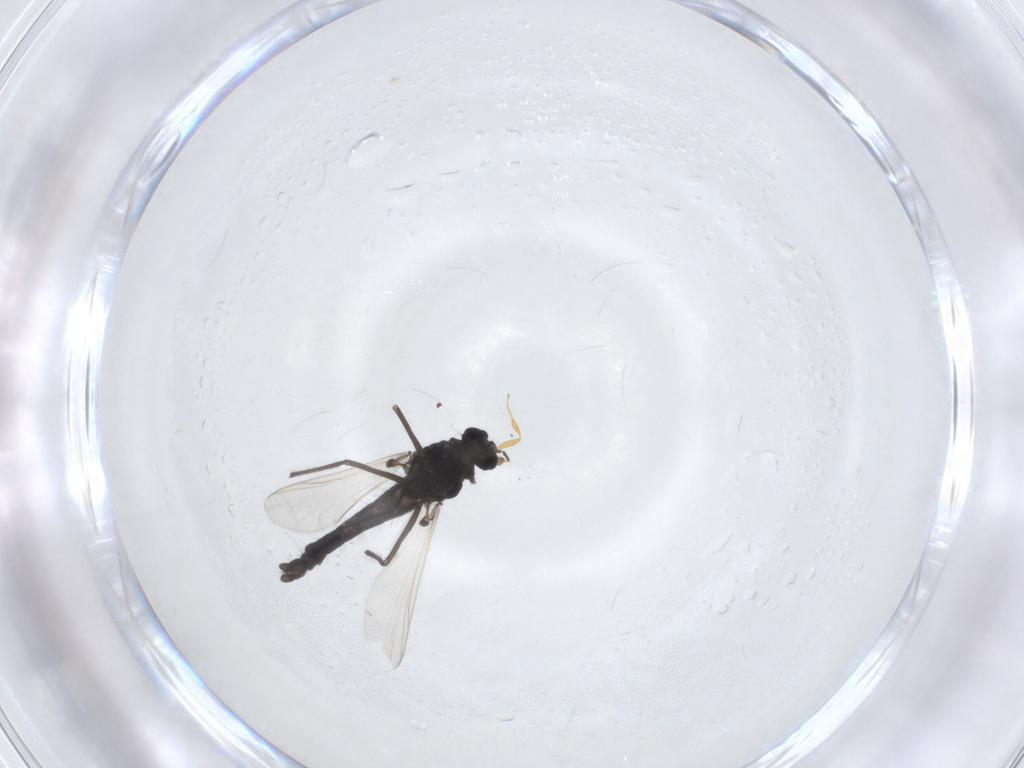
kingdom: Animalia
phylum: Arthropoda
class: Insecta
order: Diptera
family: Chironomidae
